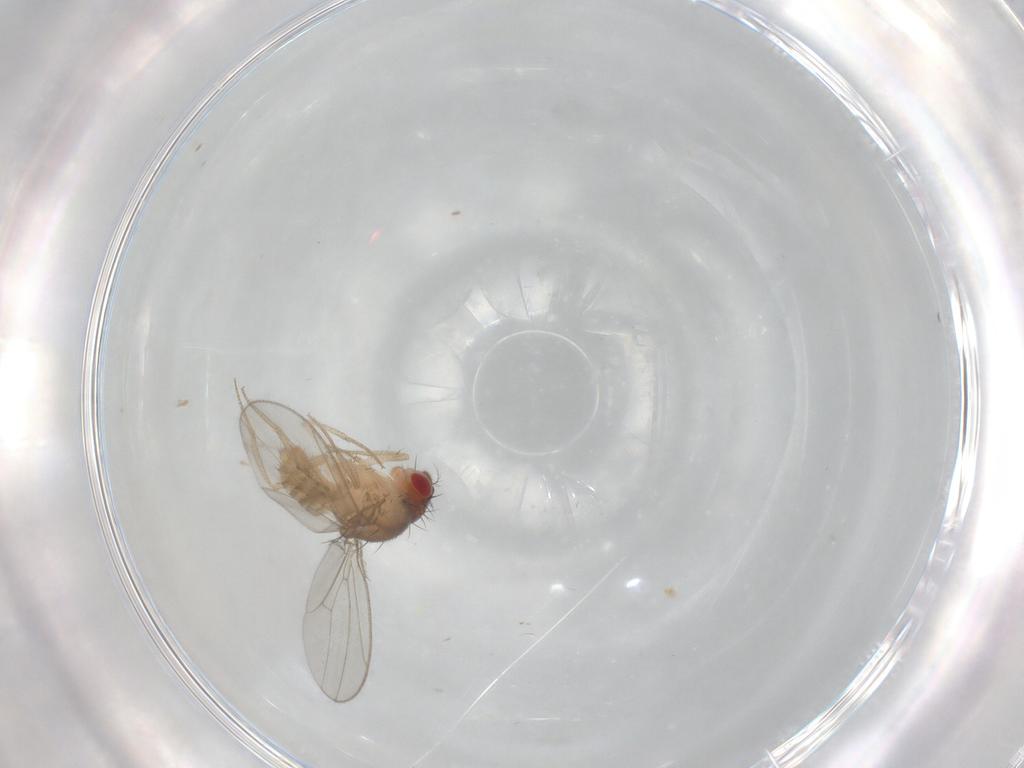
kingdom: Animalia
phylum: Arthropoda
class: Insecta
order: Diptera
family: Drosophilidae
